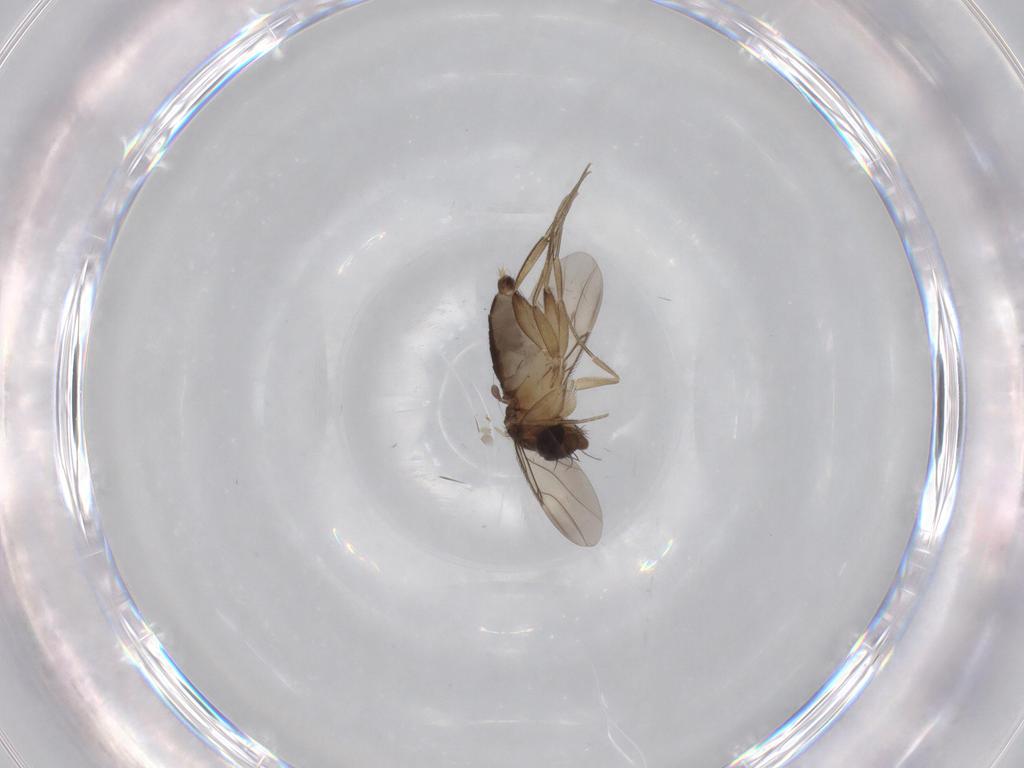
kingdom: Animalia
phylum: Arthropoda
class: Insecta
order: Diptera
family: Phoridae
